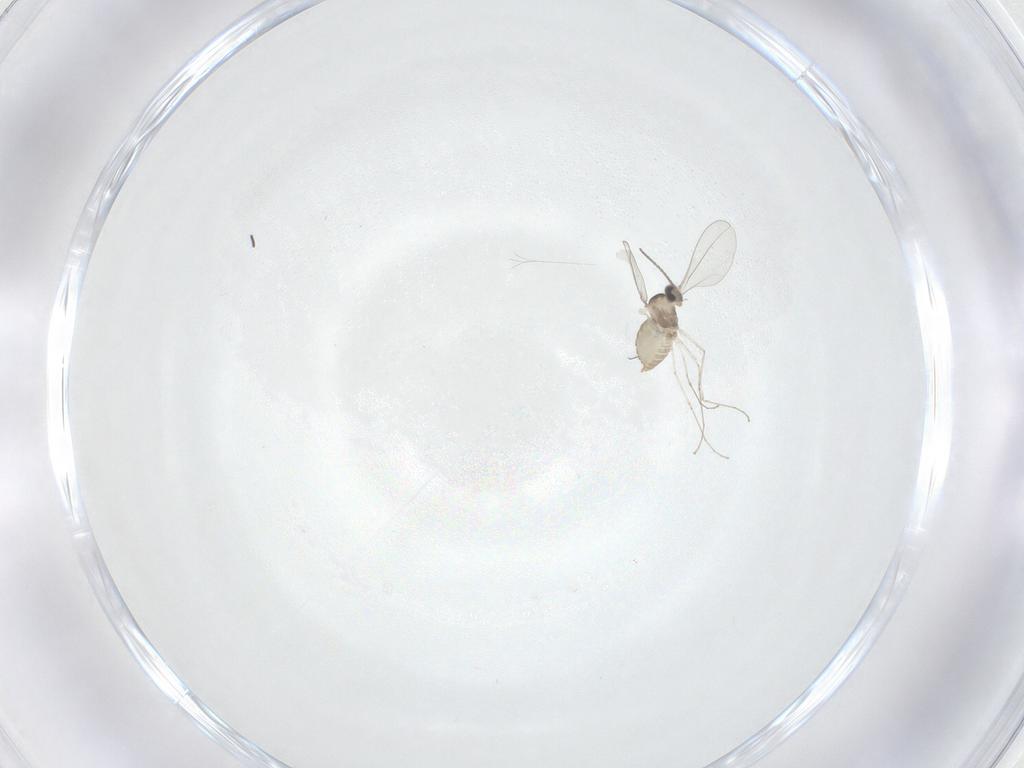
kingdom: Animalia
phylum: Arthropoda
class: Insecta
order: Diptera
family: Cecidomyiidae
